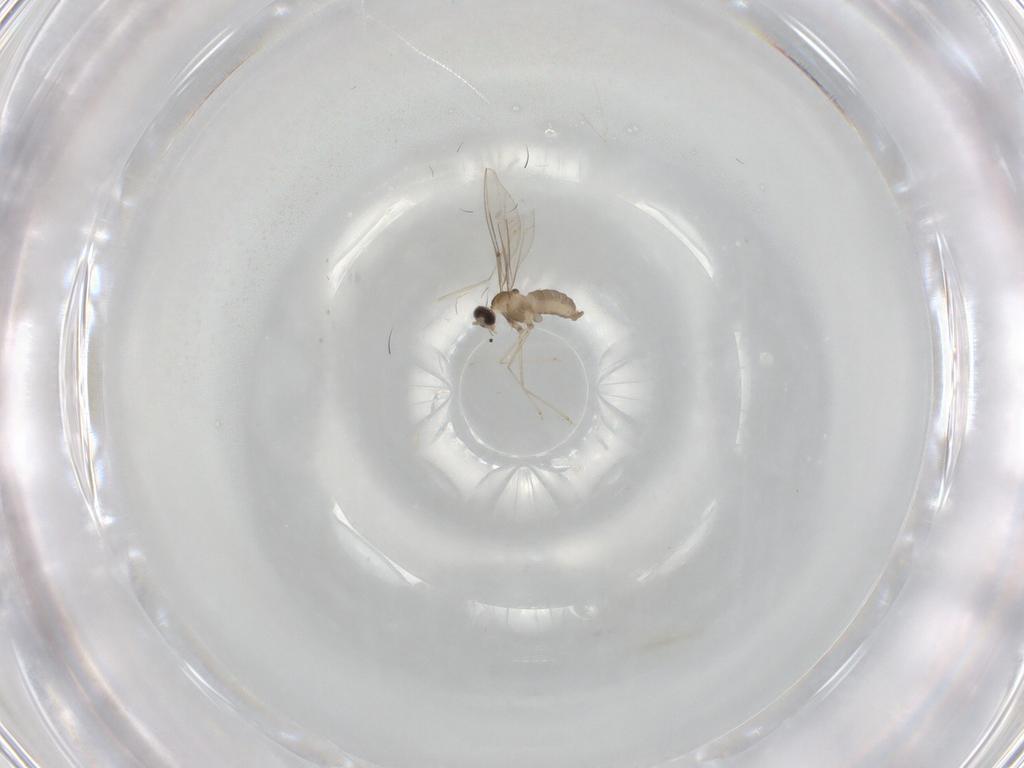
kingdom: Animalia
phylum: Arthropoda
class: Insecta
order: Diptera
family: Cecidomyiidae
